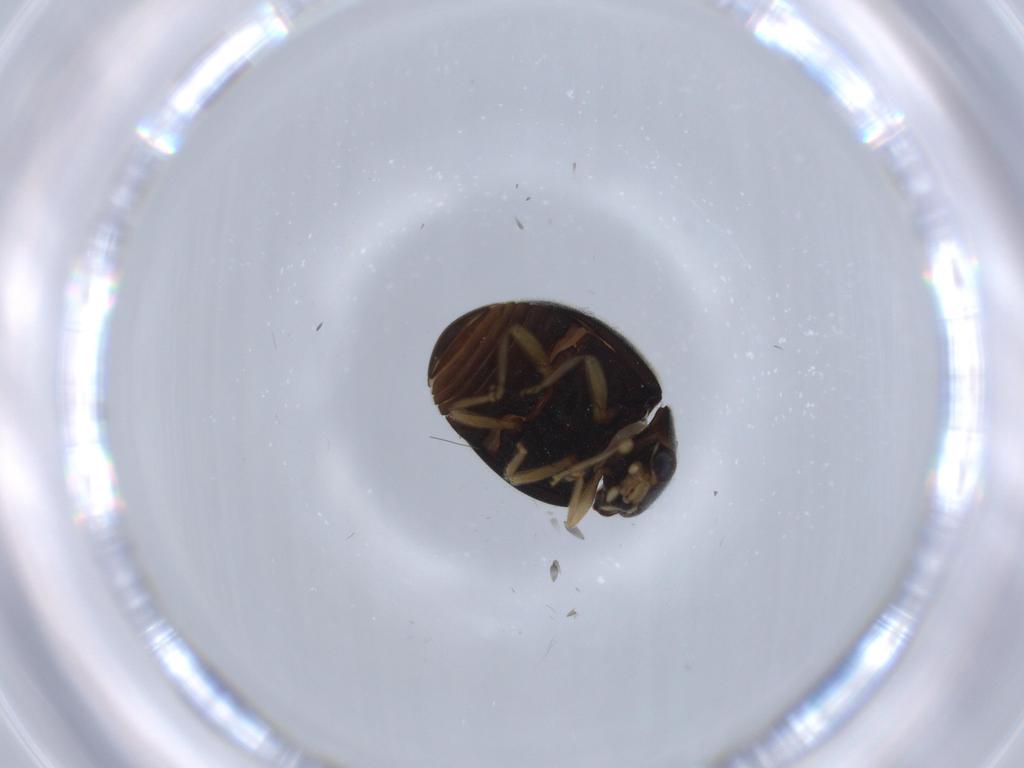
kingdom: Animalia
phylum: Arthropoda
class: Insecta
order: Coleoptera
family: Coccinellidae
